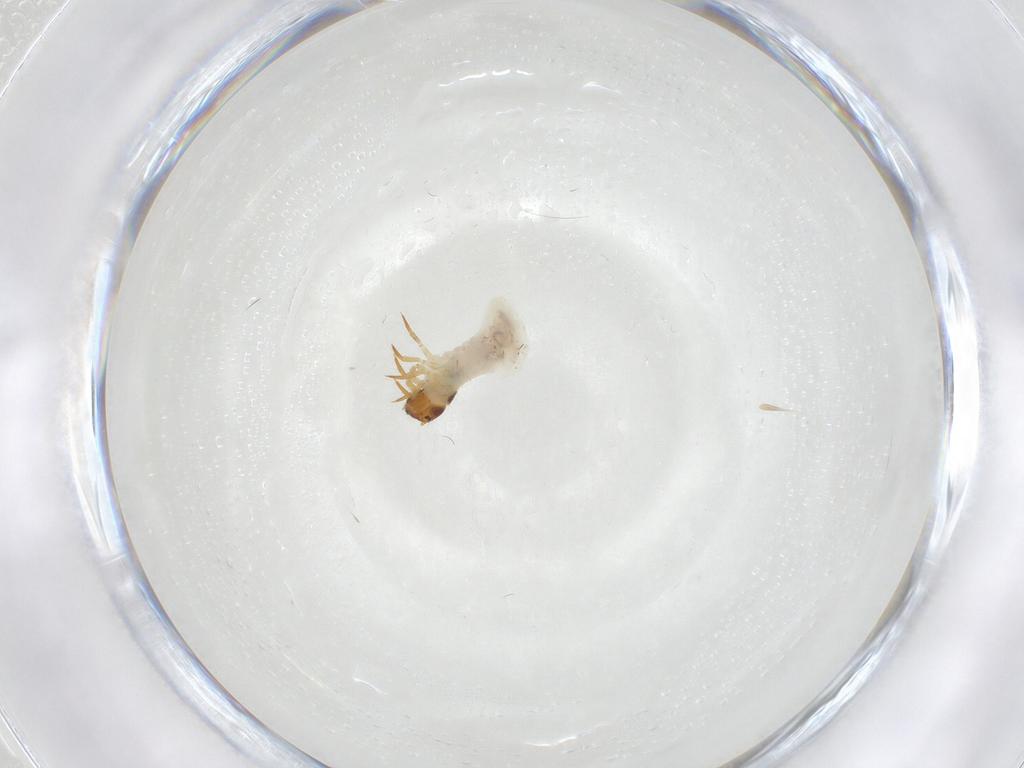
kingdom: Animalia
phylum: Arthropoda
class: Insecta
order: Coleoptera
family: Chrysomelidae
